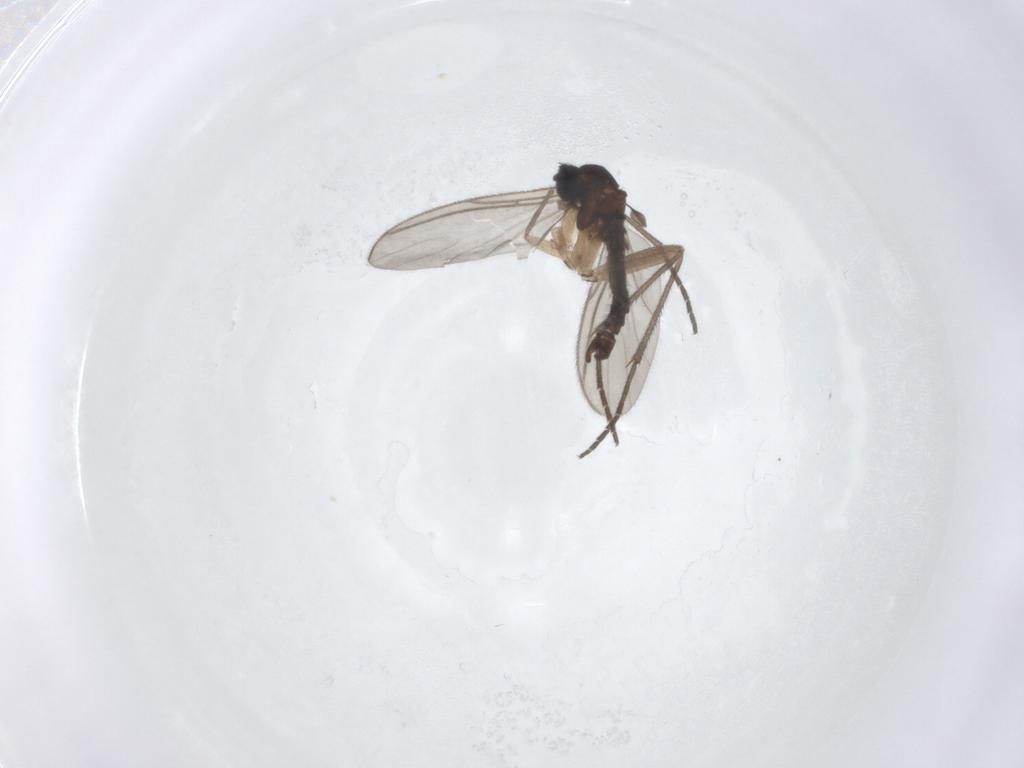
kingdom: Animalia
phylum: Arthropoda
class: Insecta
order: Diptera
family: Sciaridae
